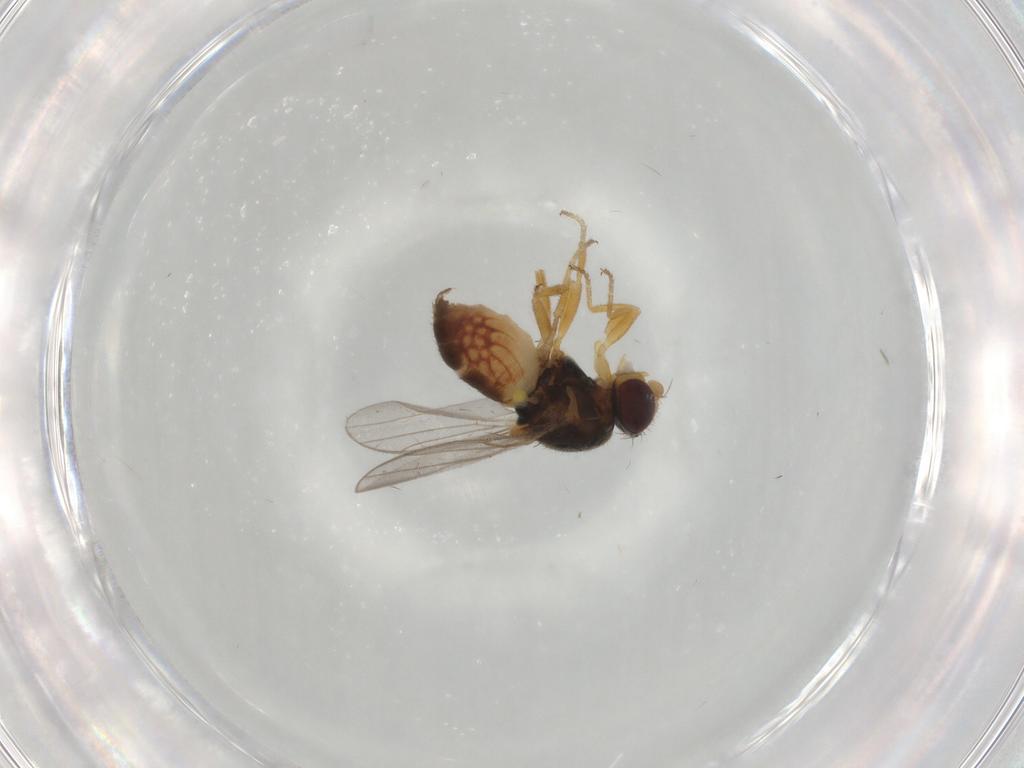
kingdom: Animalia
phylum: Arthropoda
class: Insecta
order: Diptera
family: Chloropidae
